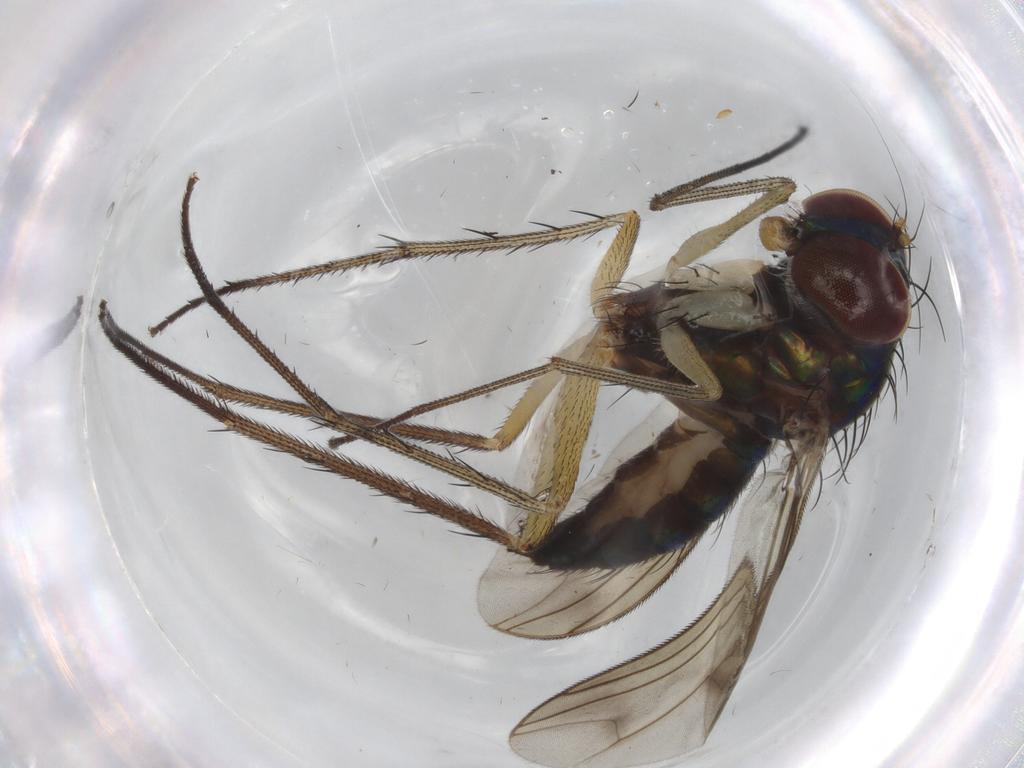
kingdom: Animalia
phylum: Arthropoda
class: Insecta
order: Diptera
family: Dolichopodidae
